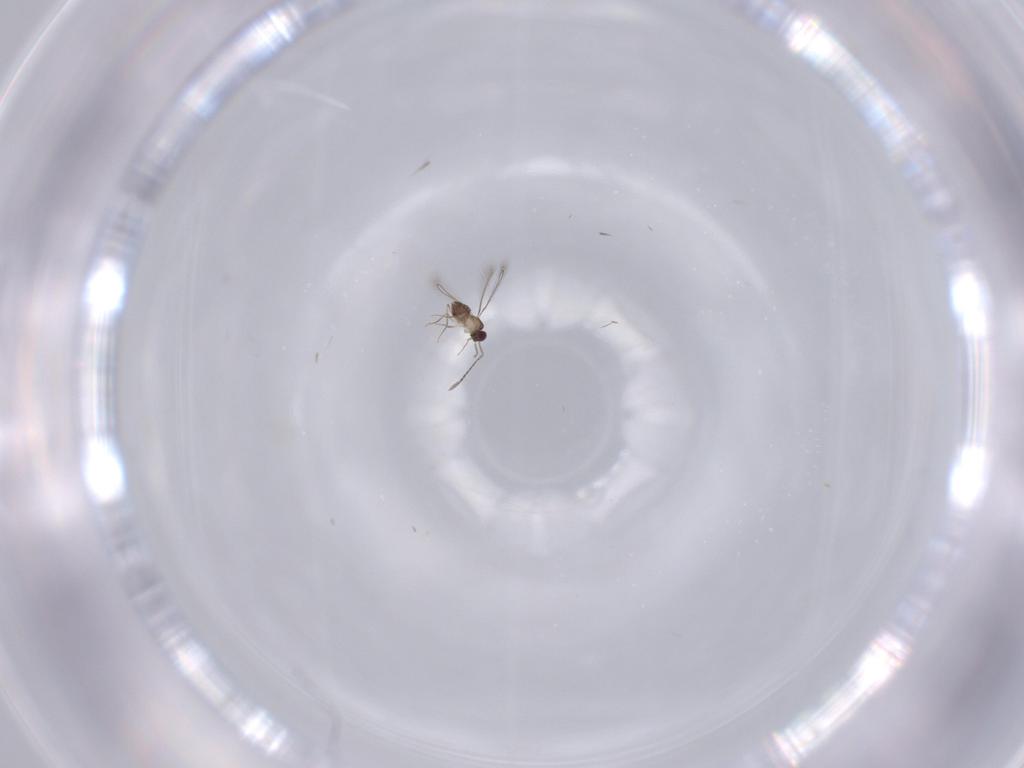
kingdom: Animalia
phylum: Arthropoda
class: Insecta
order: Hymenoptera
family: Mymaridae
